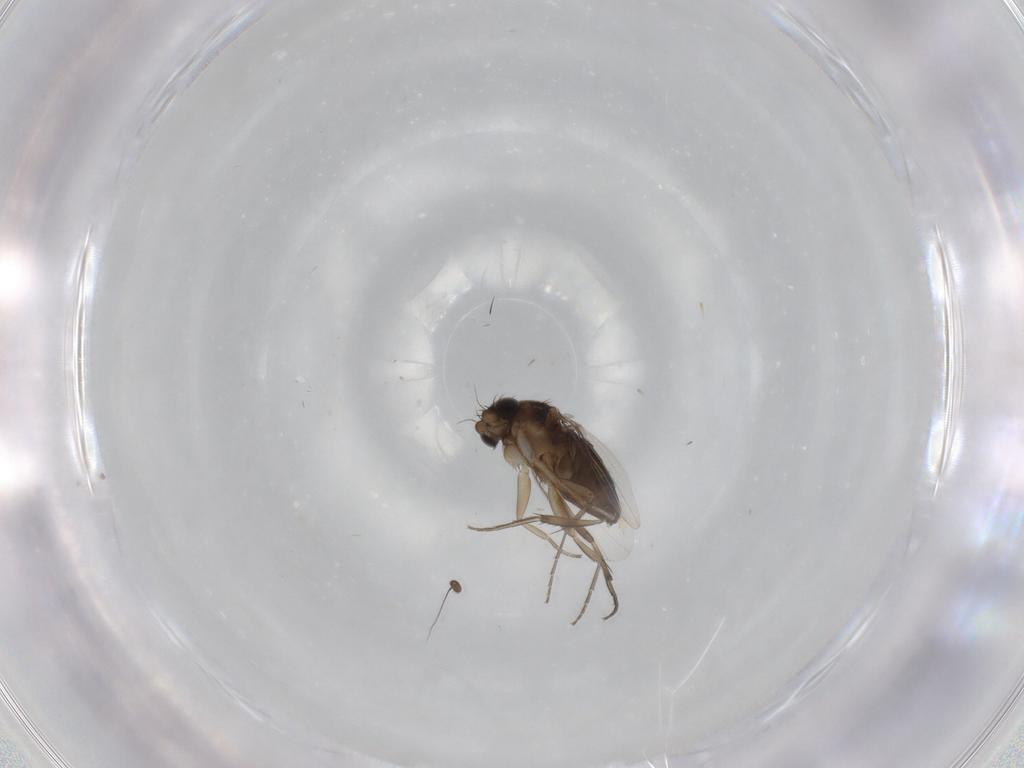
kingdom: Animalia
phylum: Arthropoda
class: Insecta
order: Diptera
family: Phoridae
